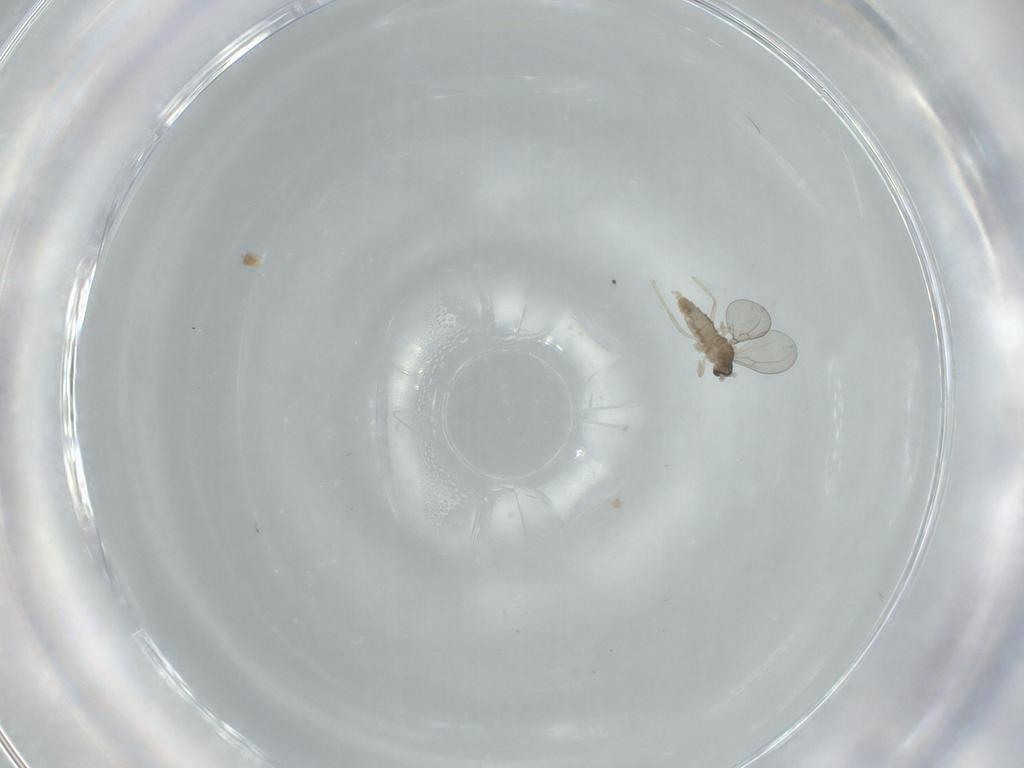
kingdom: Animalia
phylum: Arthropoda
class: Insecta
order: Diptera
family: Cecidomyiidae
